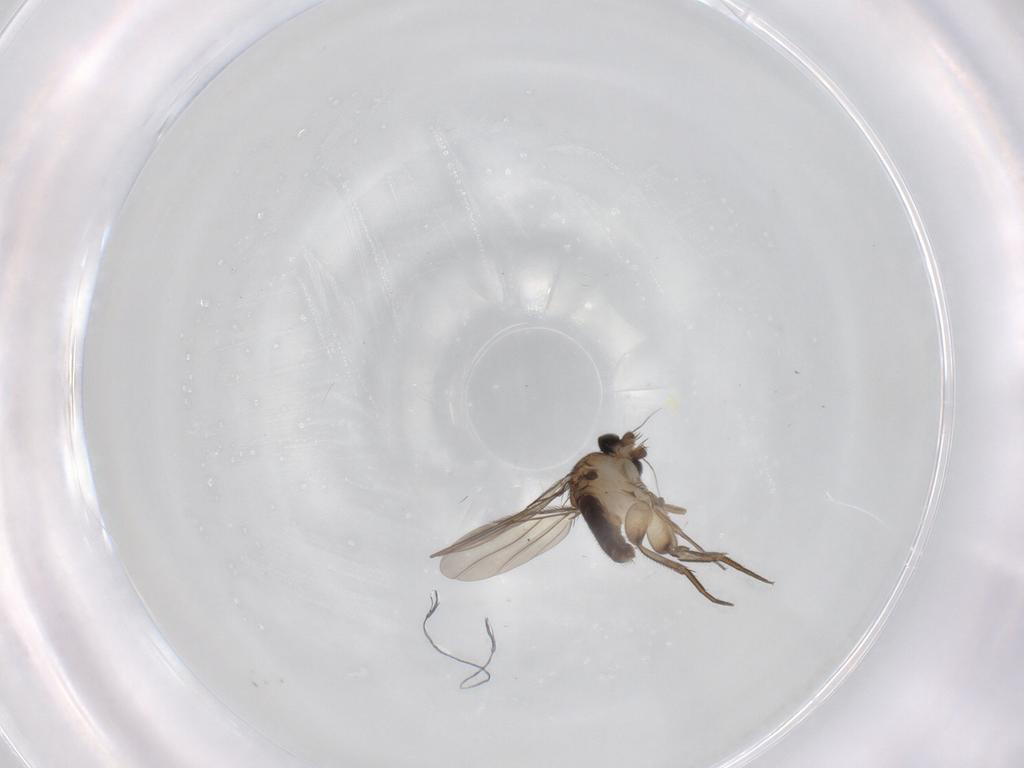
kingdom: Animalia
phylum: Arthropoda
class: Insecta
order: Diptera
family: Phoridae
